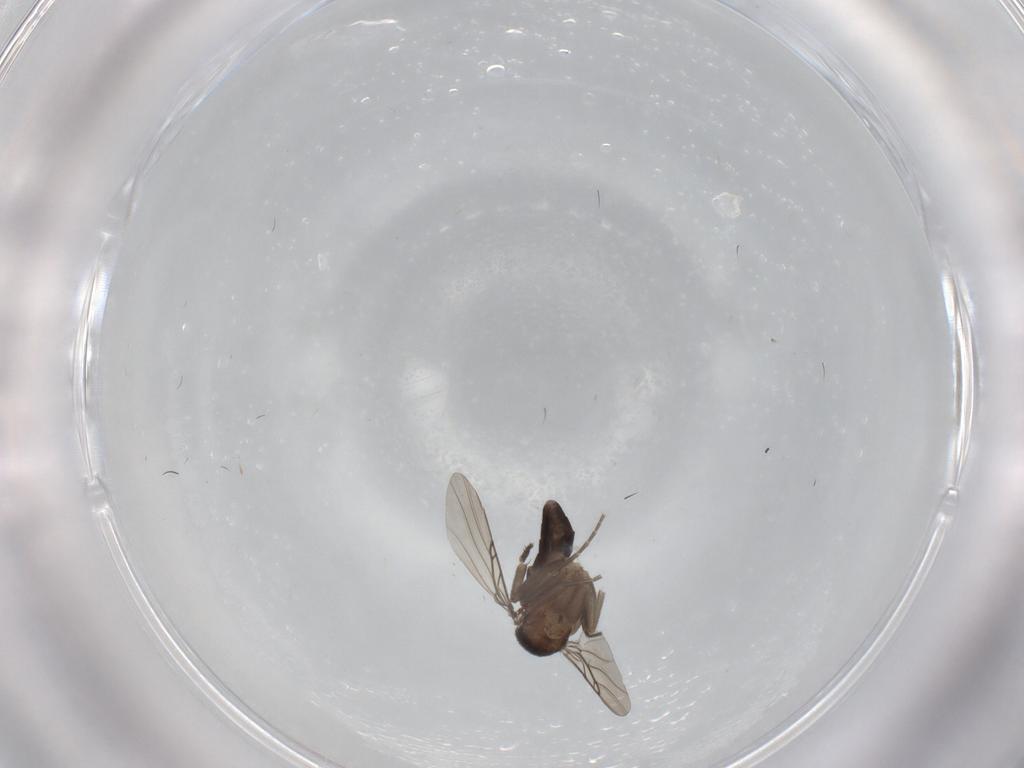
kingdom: Animalia
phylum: Arthropoda
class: Insecta
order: Diptera
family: Phoridae
